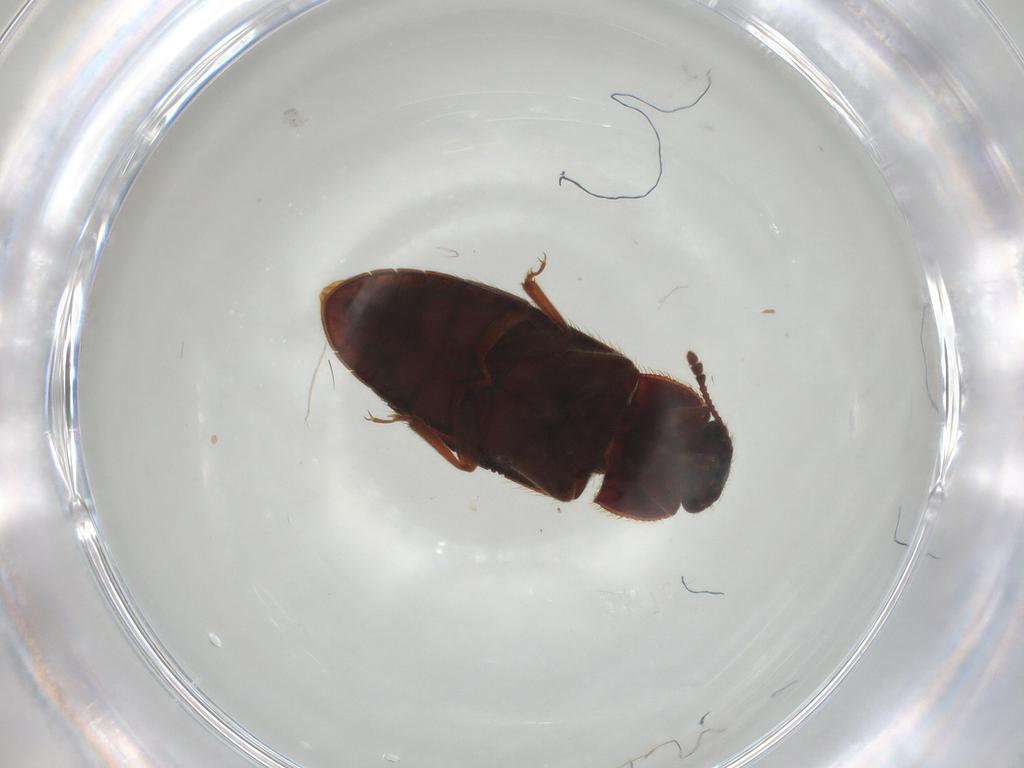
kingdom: Animalia
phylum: Arthropoda
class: Insecta
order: Coleoptera
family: Biphyllidae
